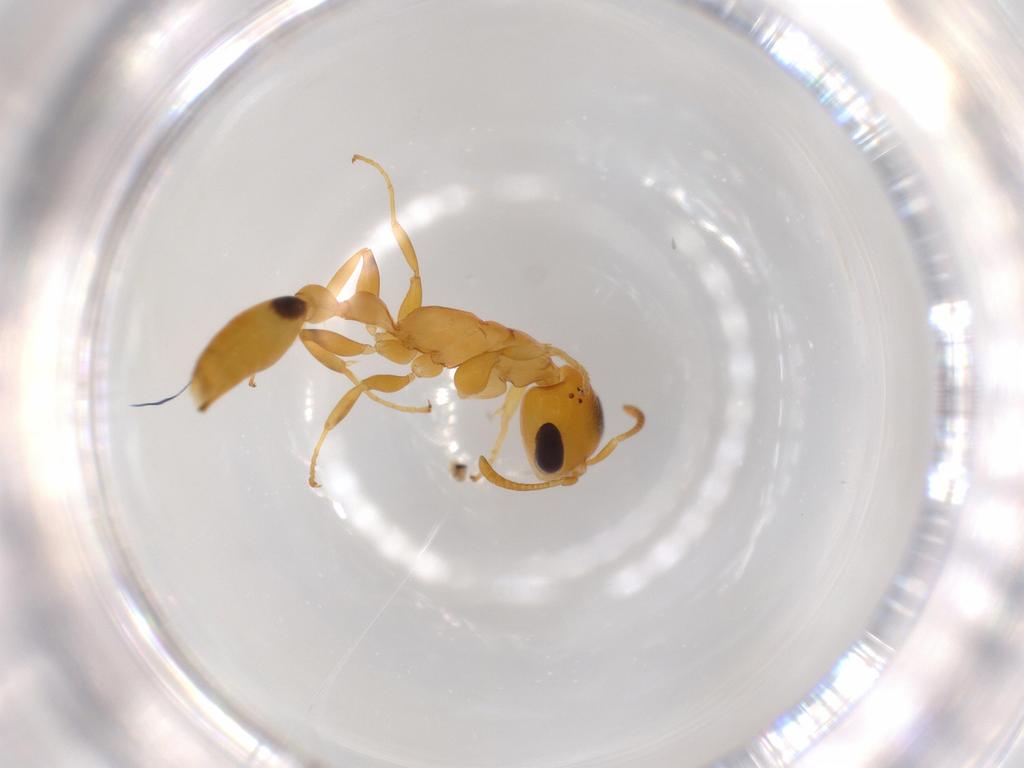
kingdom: Animalia
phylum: Arthropoda
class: Insecta
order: Hymenoptera
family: Formicidae
